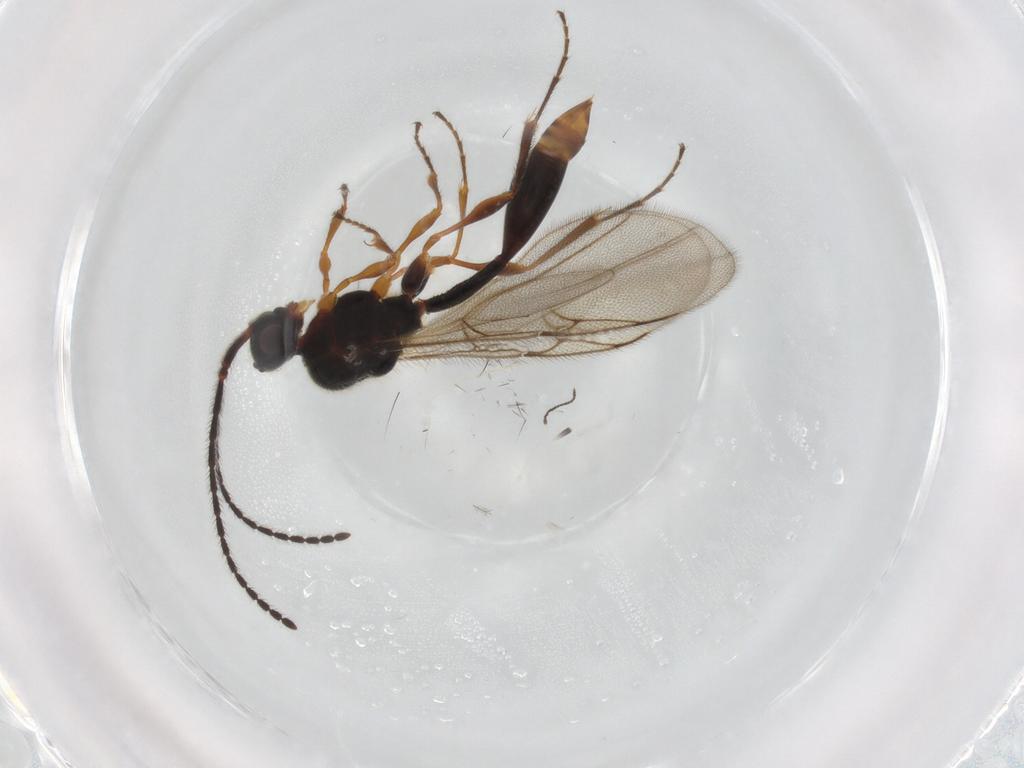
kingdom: Animalia
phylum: Arthropoda
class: Insecta
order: Hymenoptera
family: Diapriidae
